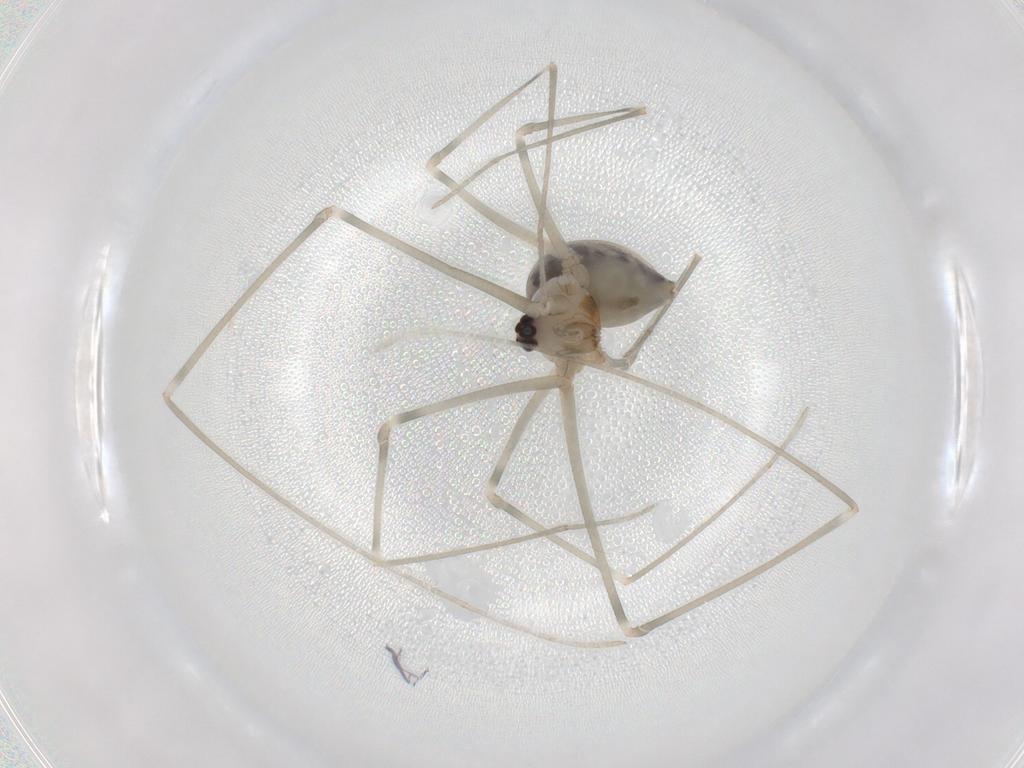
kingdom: Animalia
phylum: Arthropoda
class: Arachnida
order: Araneae
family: Pholcidae
